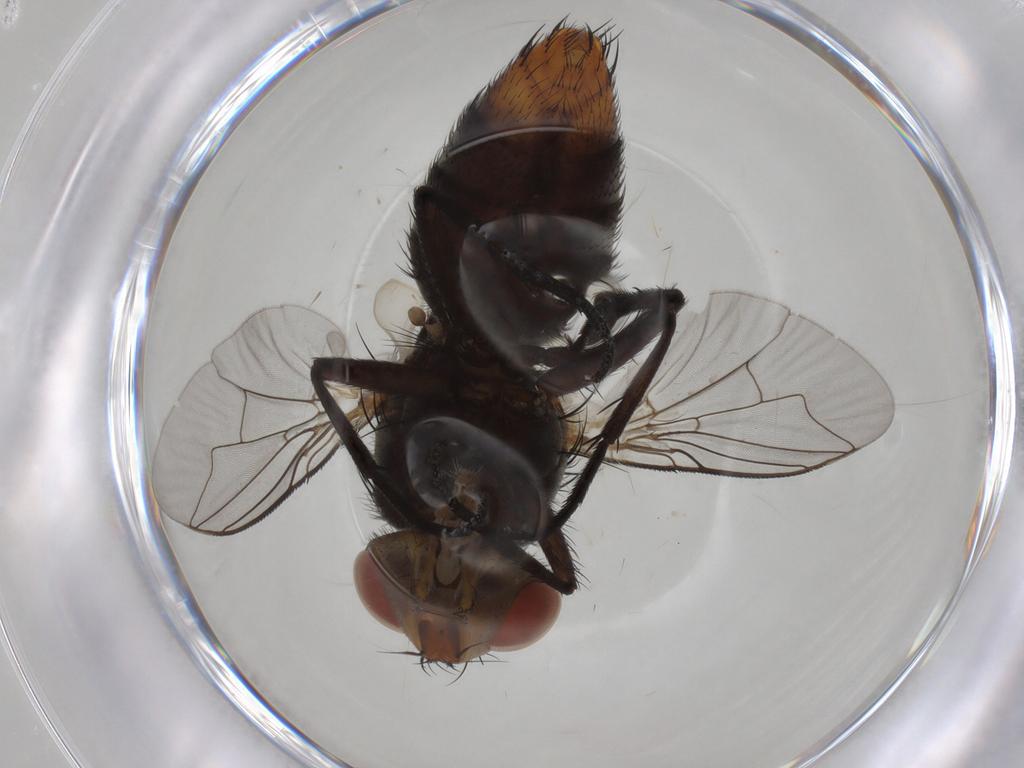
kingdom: Animalia
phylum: Arthropoda
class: Insecta
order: Diptera
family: Sarcophagidae
